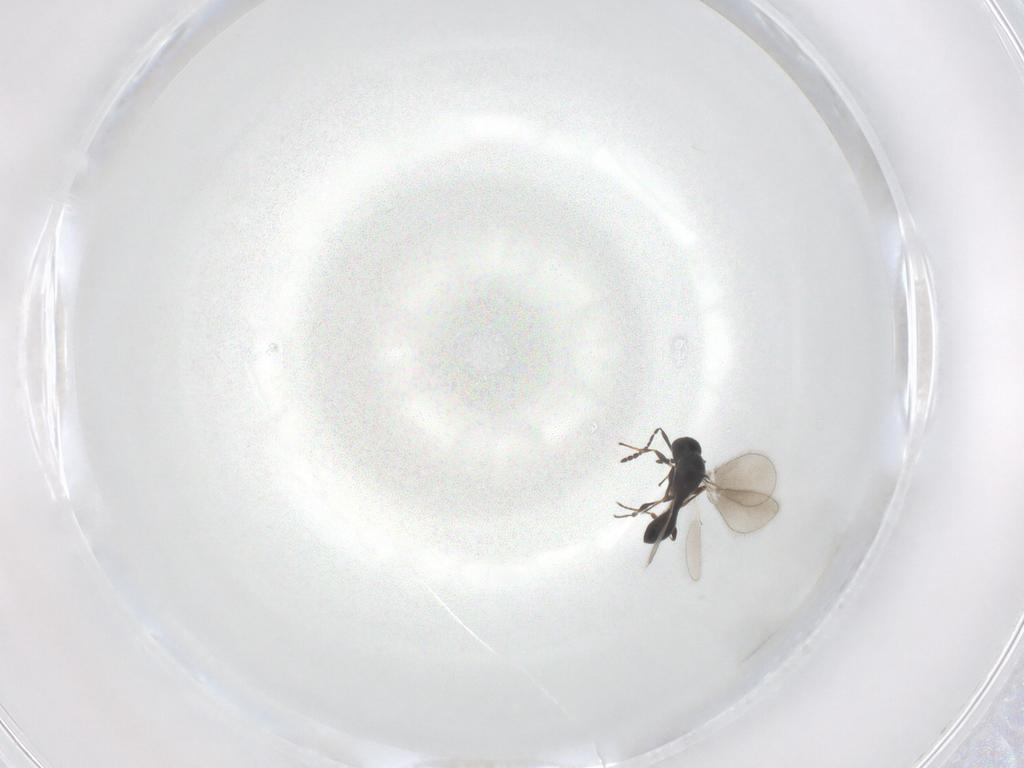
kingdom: Animalia
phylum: Arthropoda
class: Insecta
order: Hymenoptera
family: Platygastridae
